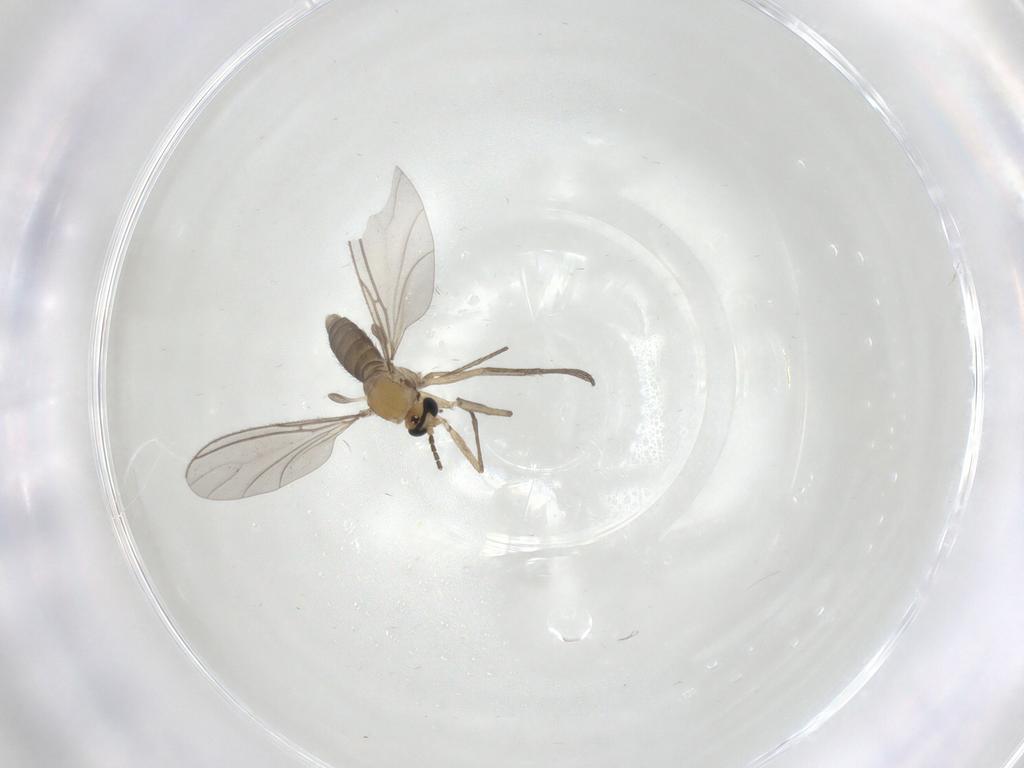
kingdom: Animalia
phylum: Arthropoda
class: Insecta
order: Diptera
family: Sciaridae
